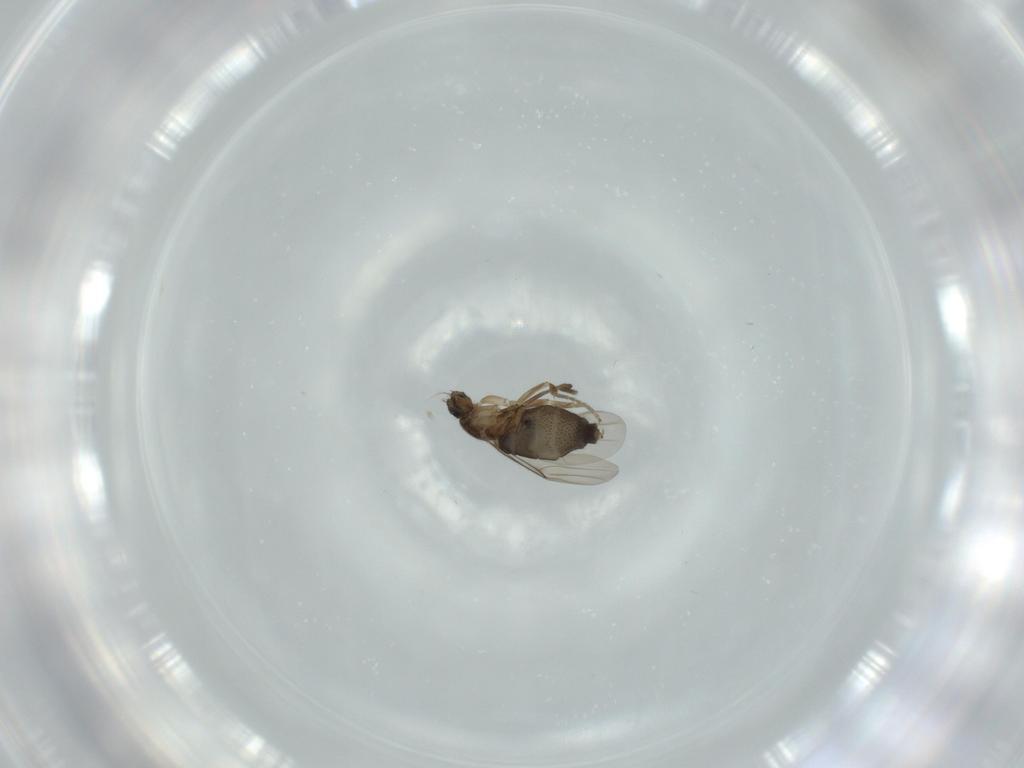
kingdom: Animalia
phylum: Arthropoda
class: Insecta
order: Diptera
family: Phoridae
